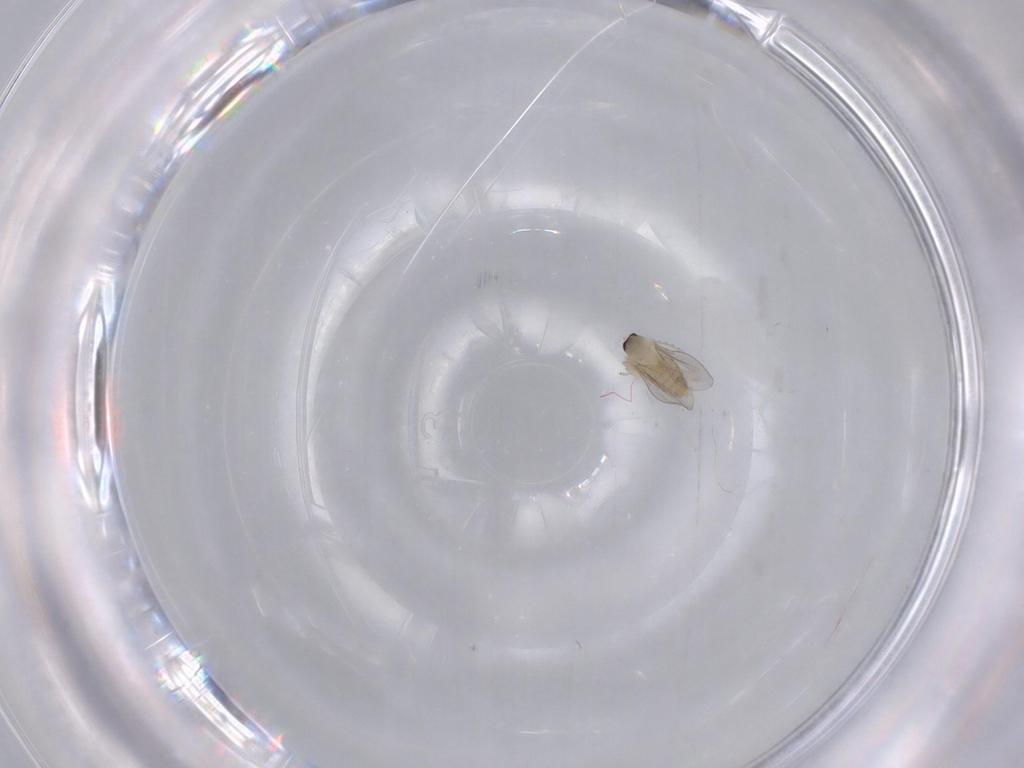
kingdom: Animalia
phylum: Arthropoda
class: Insecta
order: Diptera
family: Cecidomyiidae
